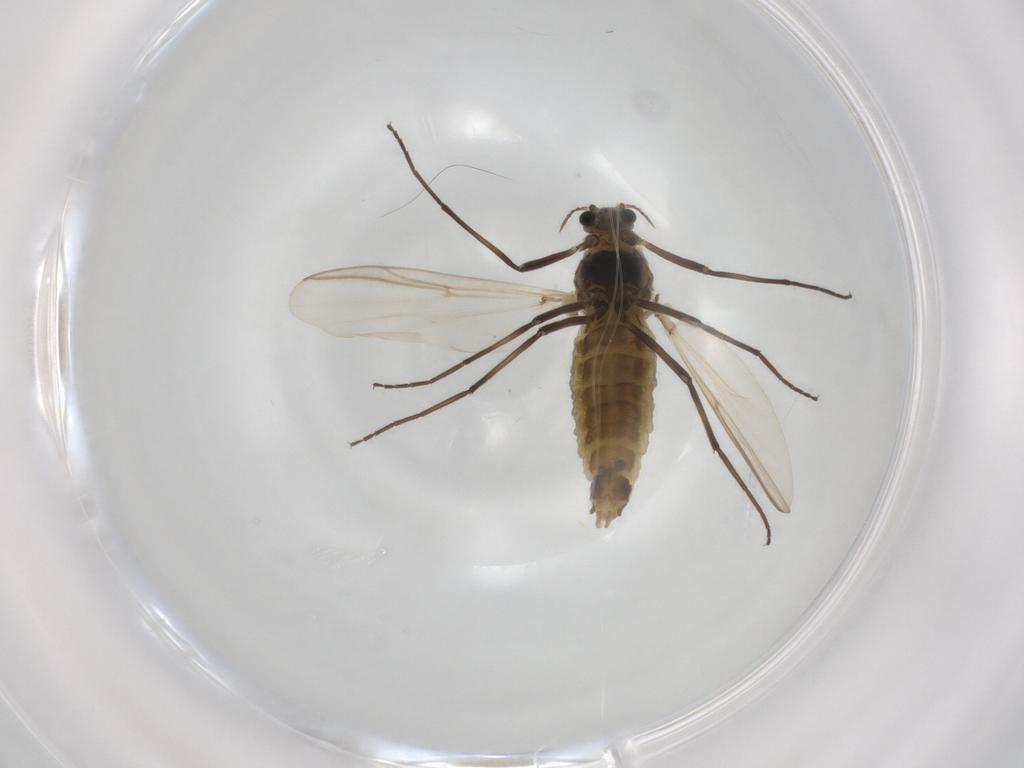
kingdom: Animalia
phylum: Arthropoda
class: Insecta
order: Diptera
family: Chironomidae
